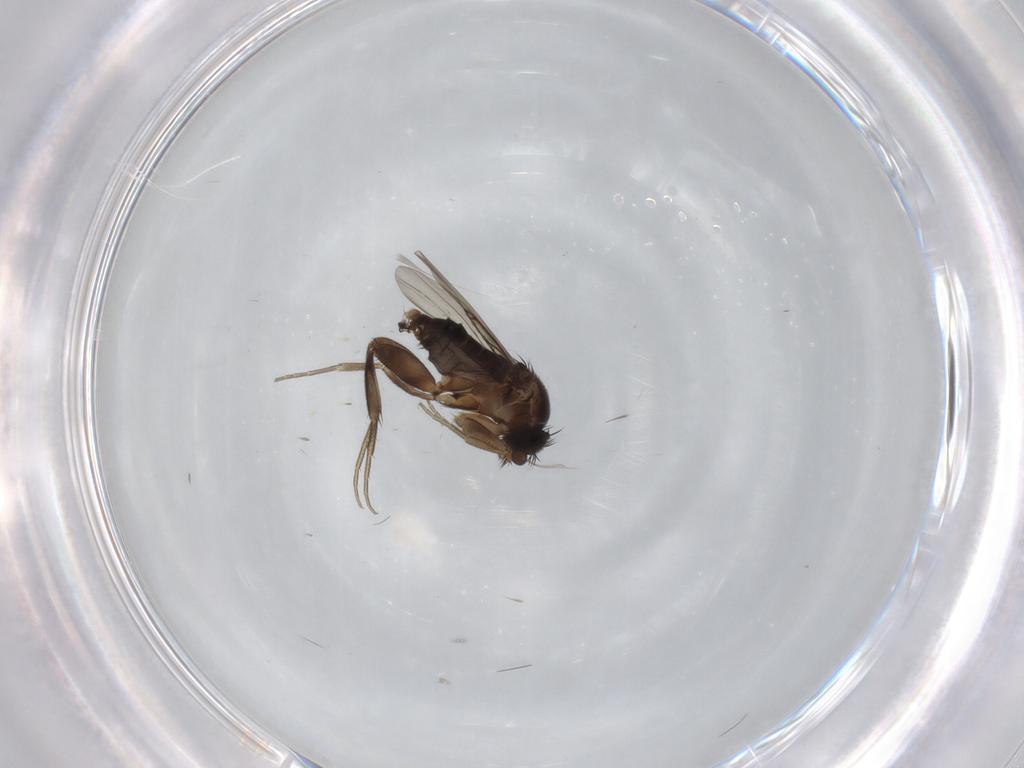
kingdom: Animalia
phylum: Arthropoda
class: Insecta
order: Diptera
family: Phoridae
